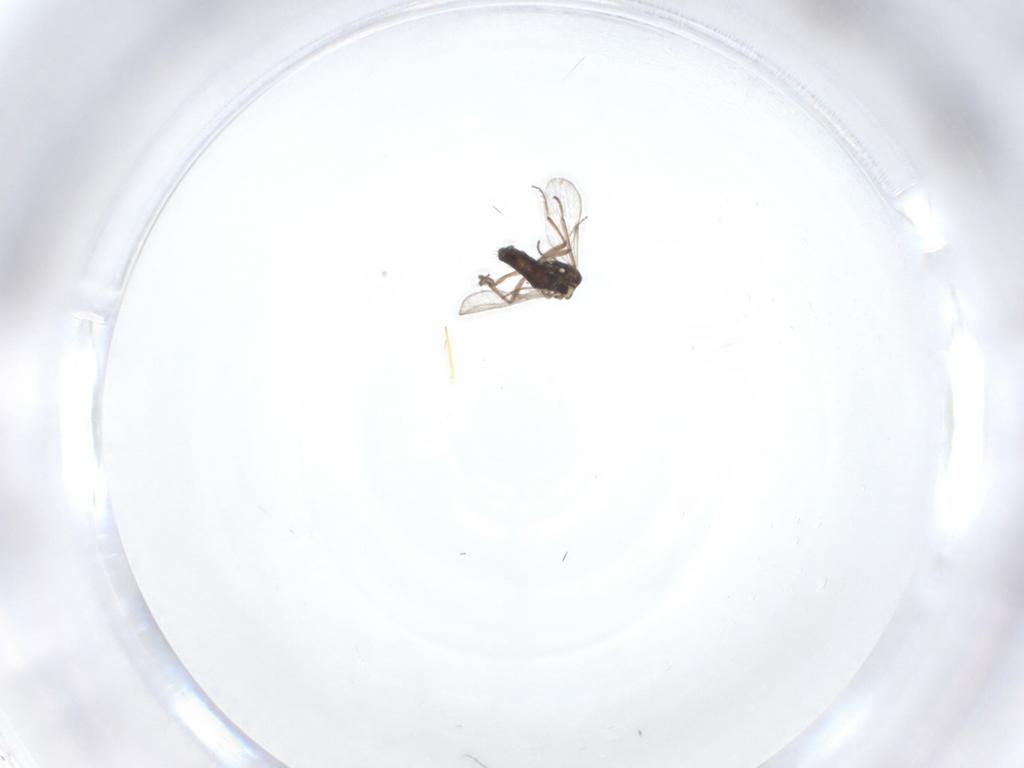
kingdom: Animalia
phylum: Arthropoda
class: Insecta
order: Diptera
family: Ceratopogonidae
